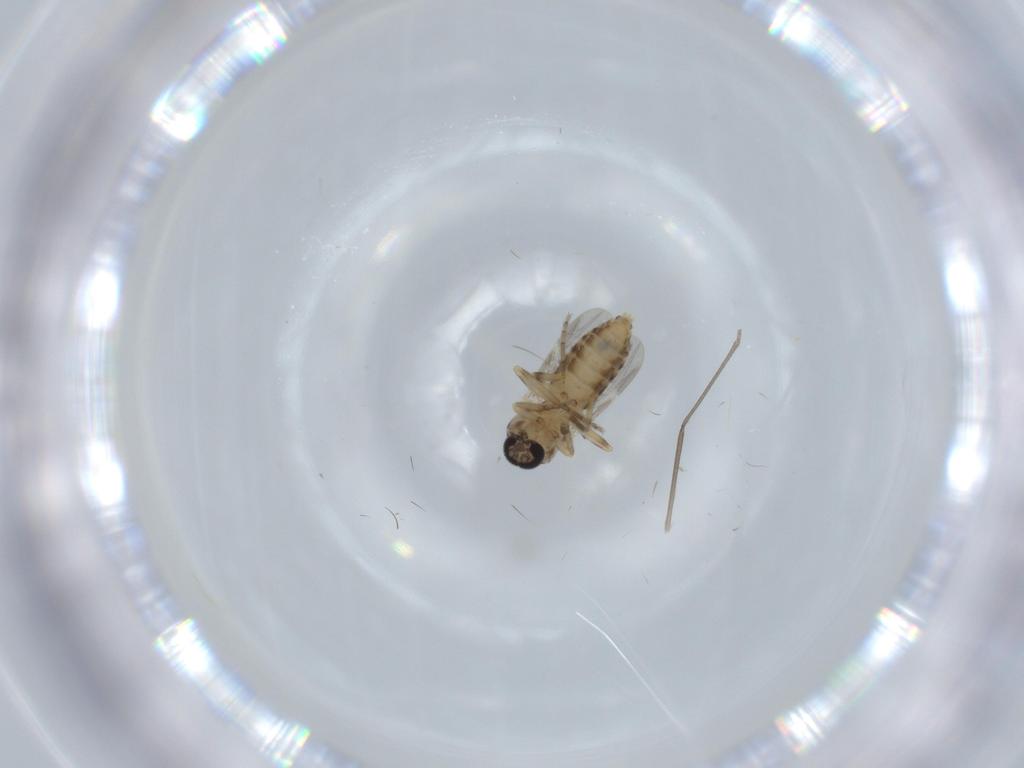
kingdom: Animalia
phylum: Arthropoda
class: Insecta
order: Diptera
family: Ceratopogonidae
